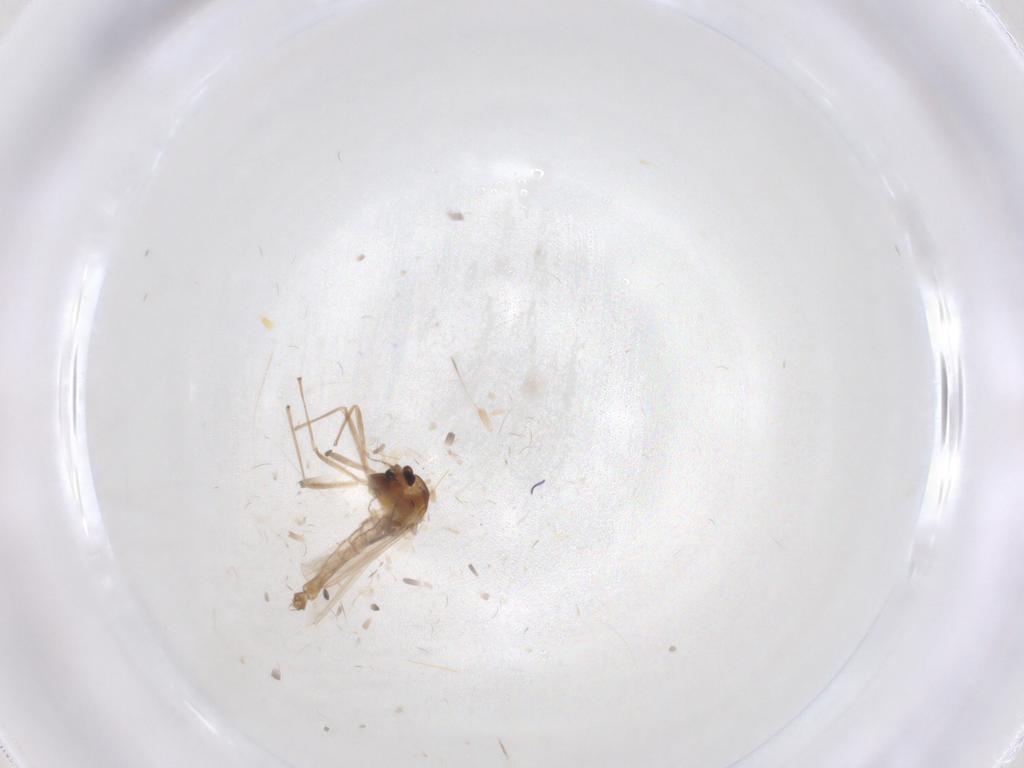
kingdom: Animalia
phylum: Arthropoda
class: Insecta
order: Diptera
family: Chironomidae
